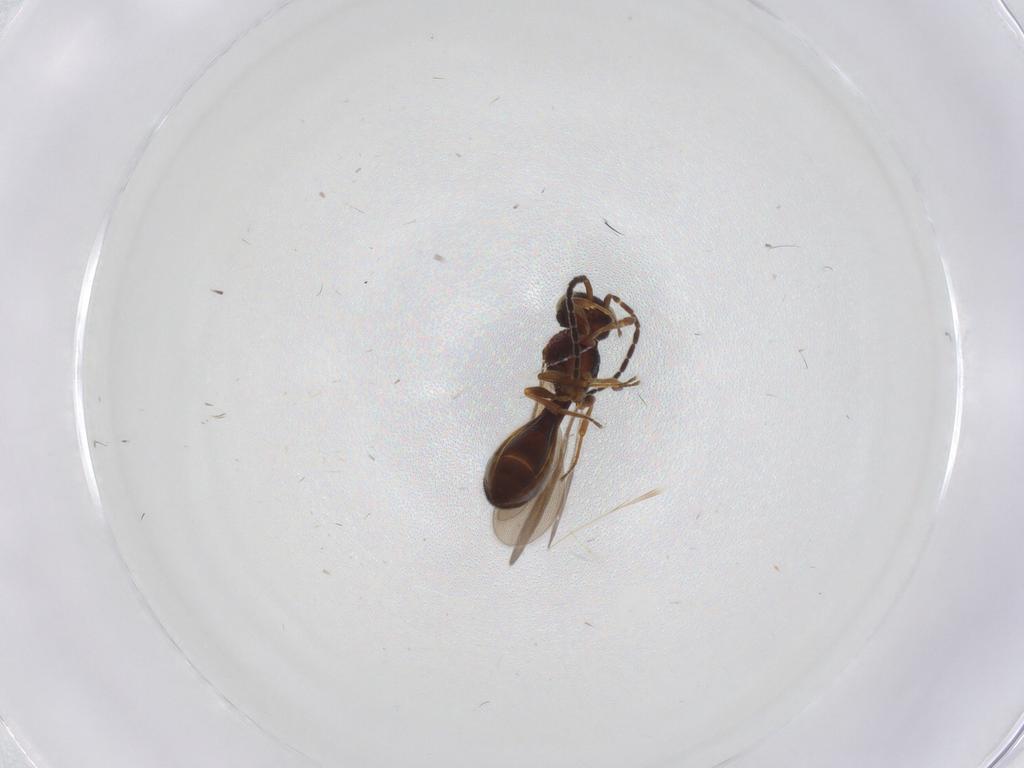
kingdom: Animalia
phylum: Arthropoda
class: Insecta
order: Hymenoptera
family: Scelionidae
